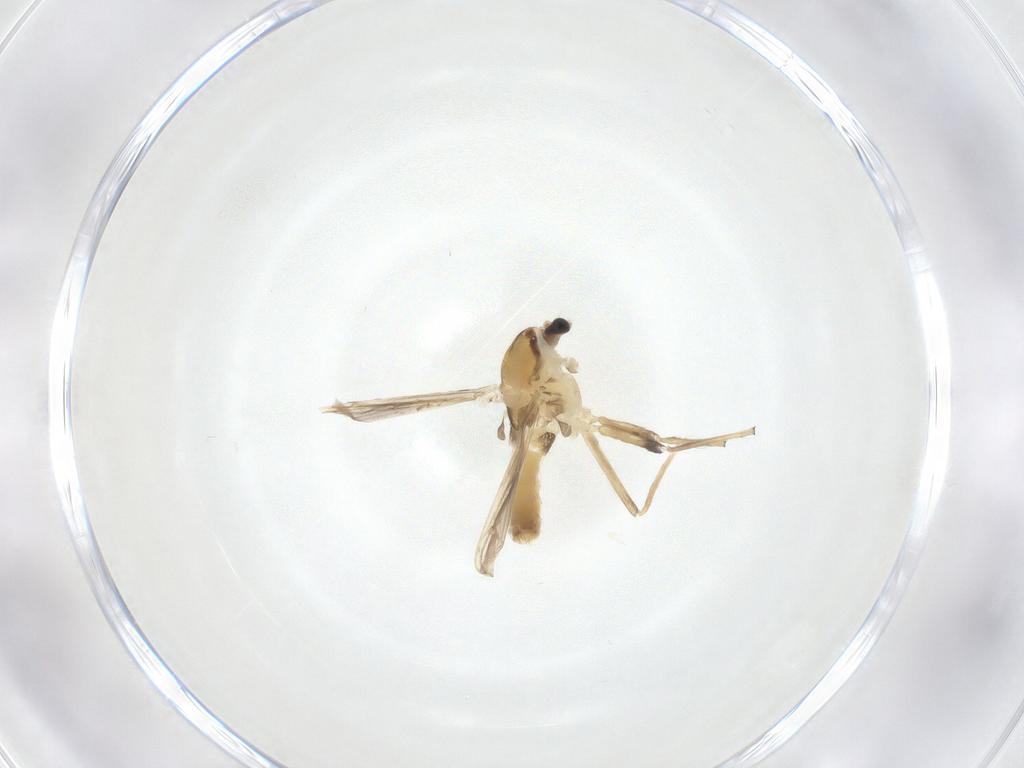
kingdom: Animalia
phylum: Arthropoda
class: Insecta
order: Diptera
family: Chironomidae
